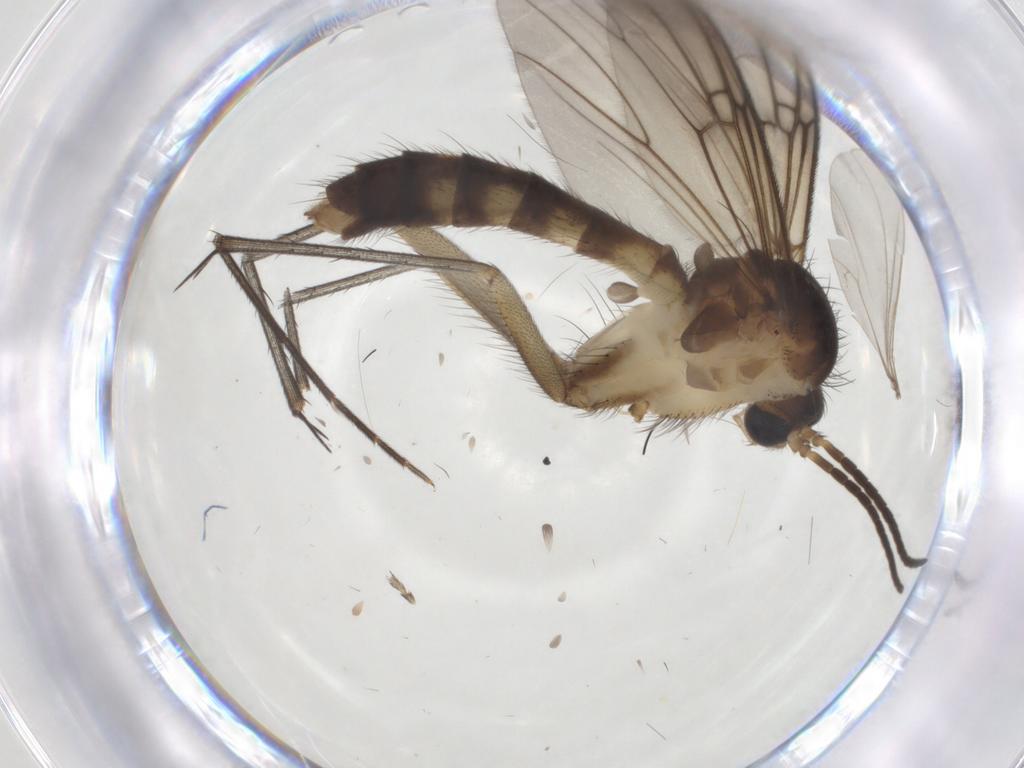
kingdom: Animalia
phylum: Arthropoda
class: Insecta
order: Diptera
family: Mycetophilidae
